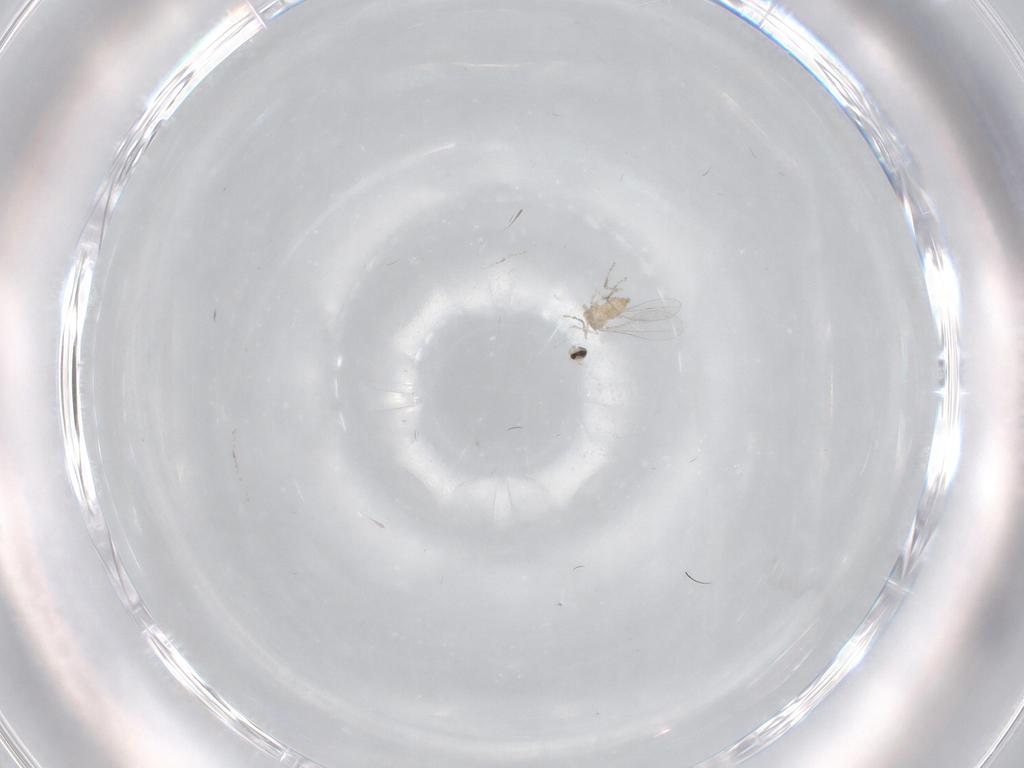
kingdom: Animalia
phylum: Arthropoda
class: Insecta
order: Diptera
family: Cecidomyiidae
